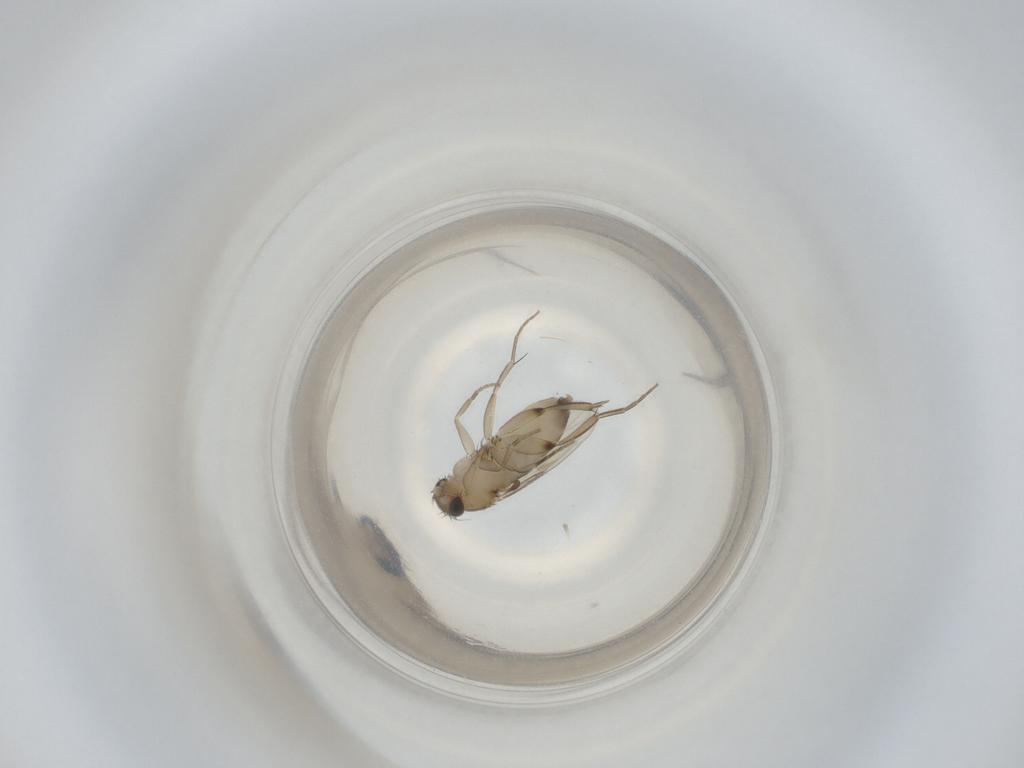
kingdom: Animalia
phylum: Arthropoda
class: Insecta
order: Diptera
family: Phoridae
